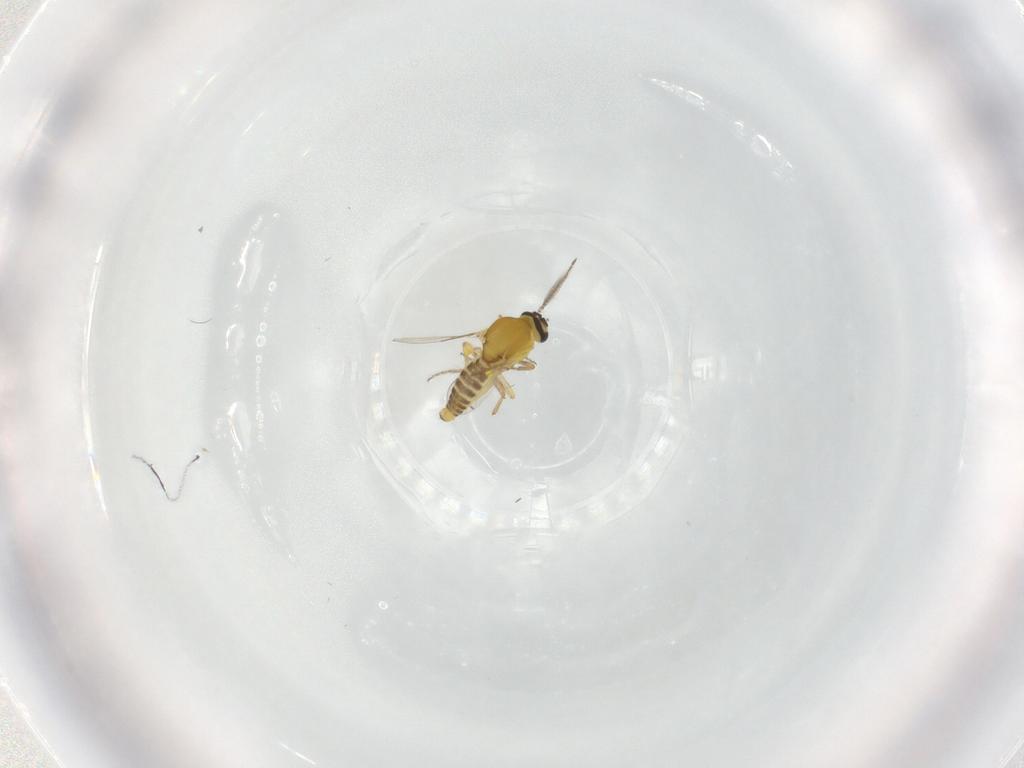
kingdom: Animalia
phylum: Arthropoda
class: Insecta
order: Diptera
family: Ceratopogonidae
